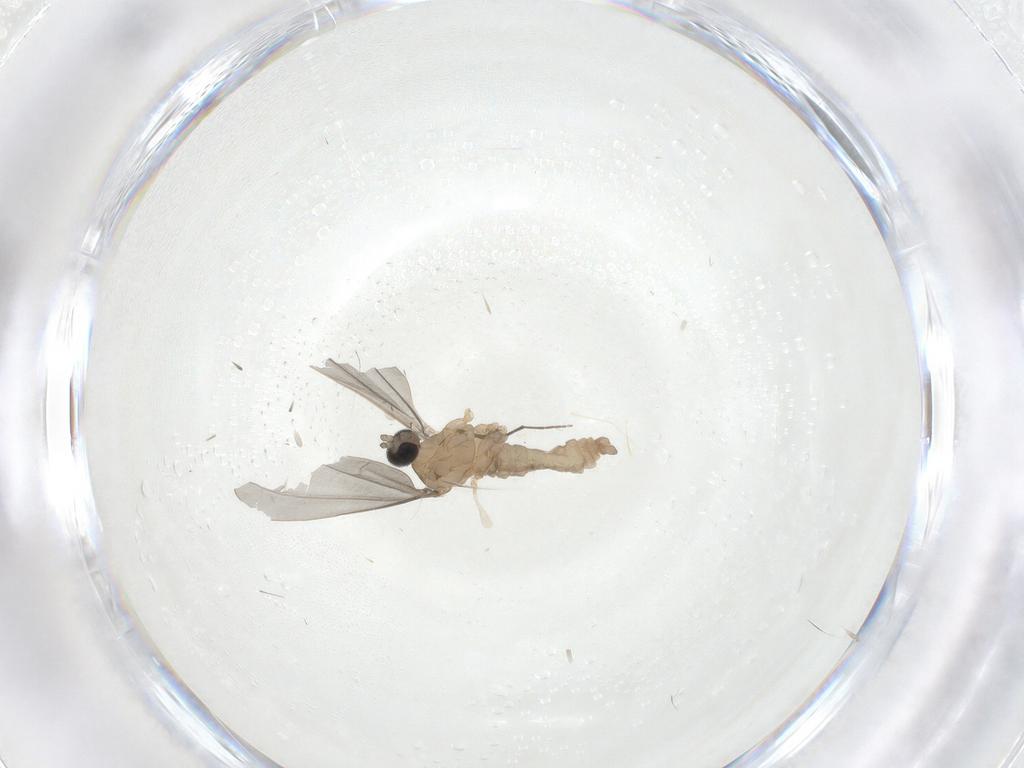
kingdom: Animalia
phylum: Arthropoda
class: Insecta
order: Diptera
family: Cecidomyiidae
